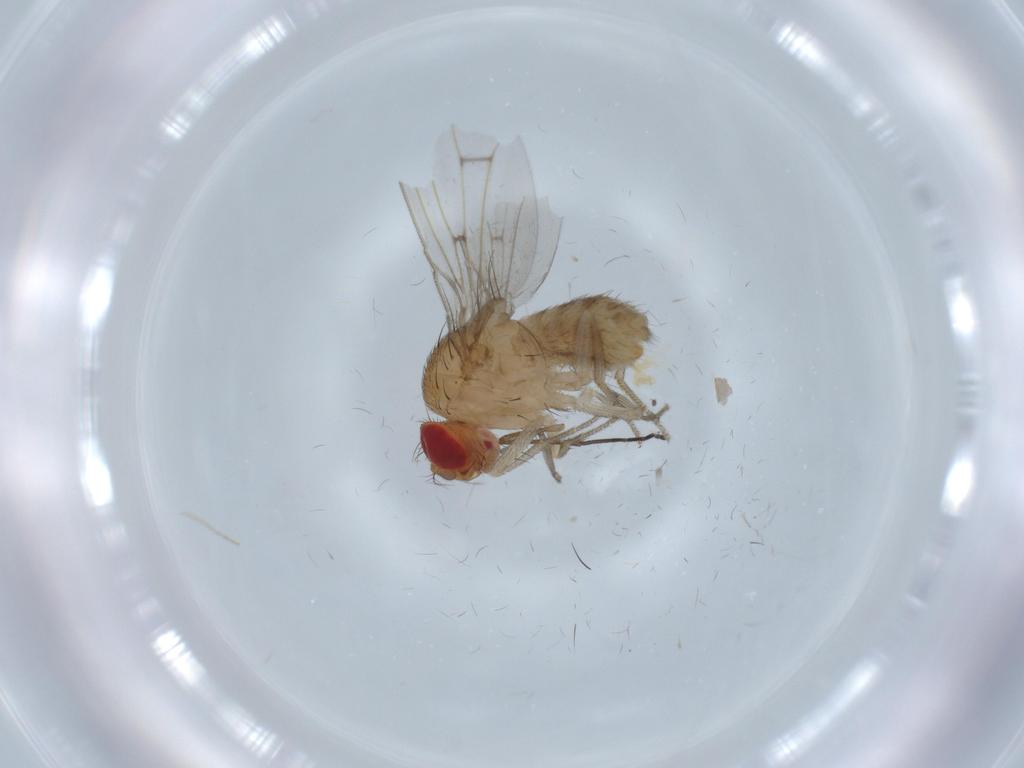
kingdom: Animalia
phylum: Arthropoda
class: Insecta
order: Diptera
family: Drosophilidae
